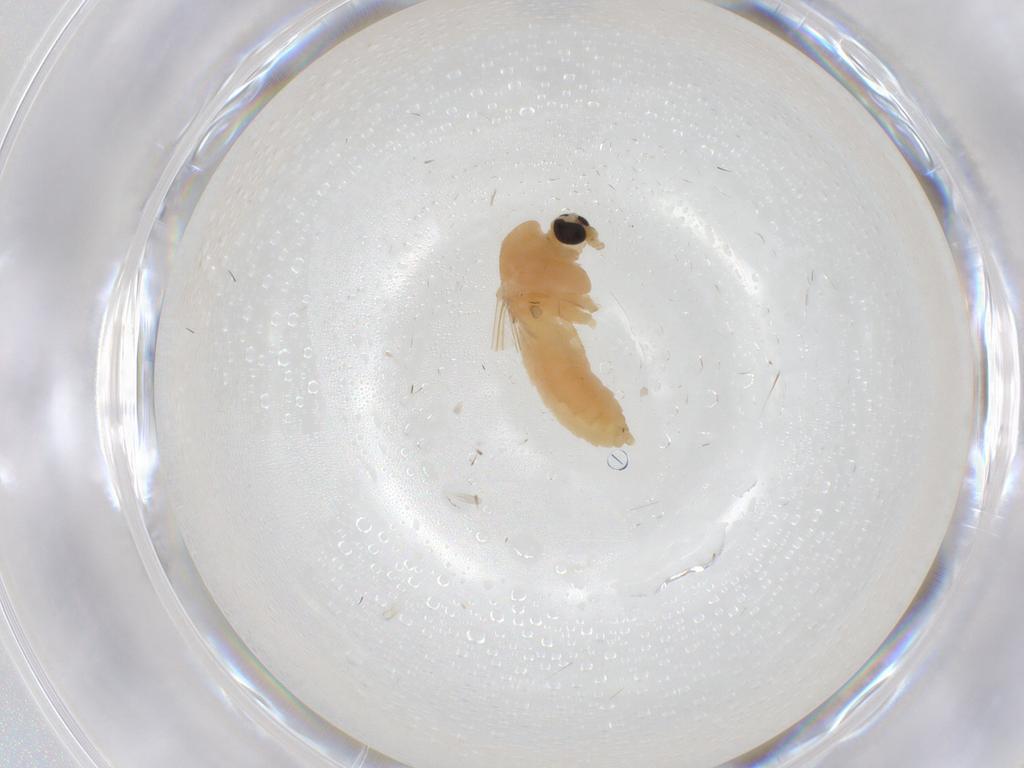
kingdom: Animalia
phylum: Arthropoda
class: Insecta
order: Diptera
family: Chironomidae
